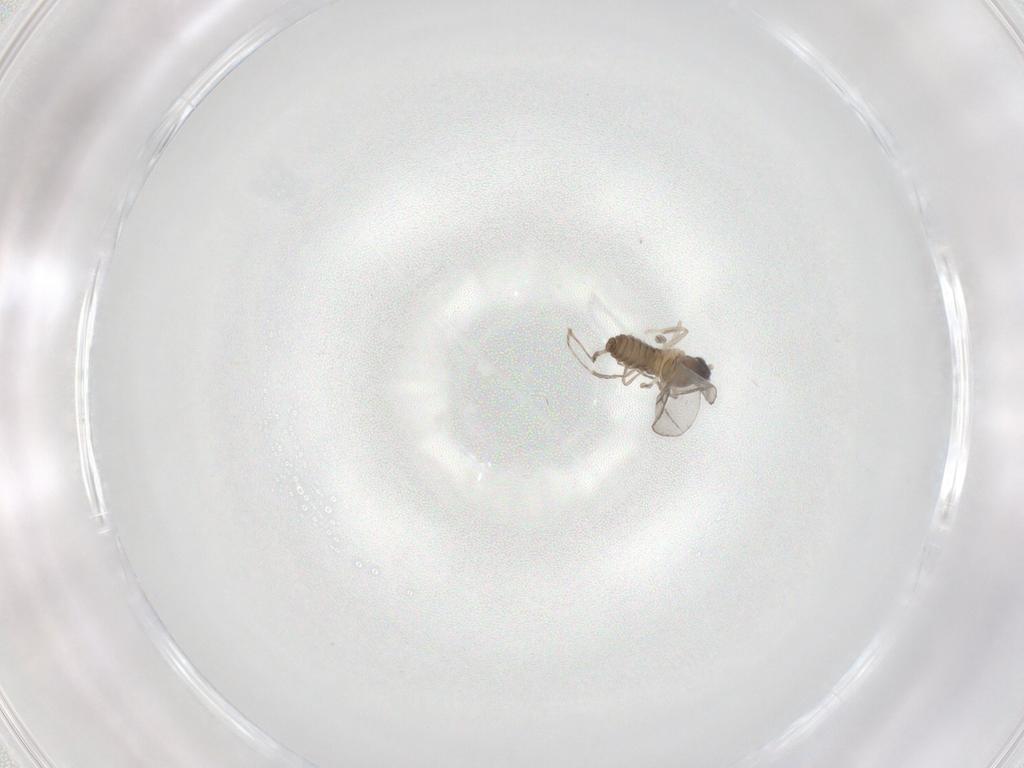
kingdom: Animalia
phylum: Arthropoda
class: Insecta
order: Diptera
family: Cecidomyiidae
